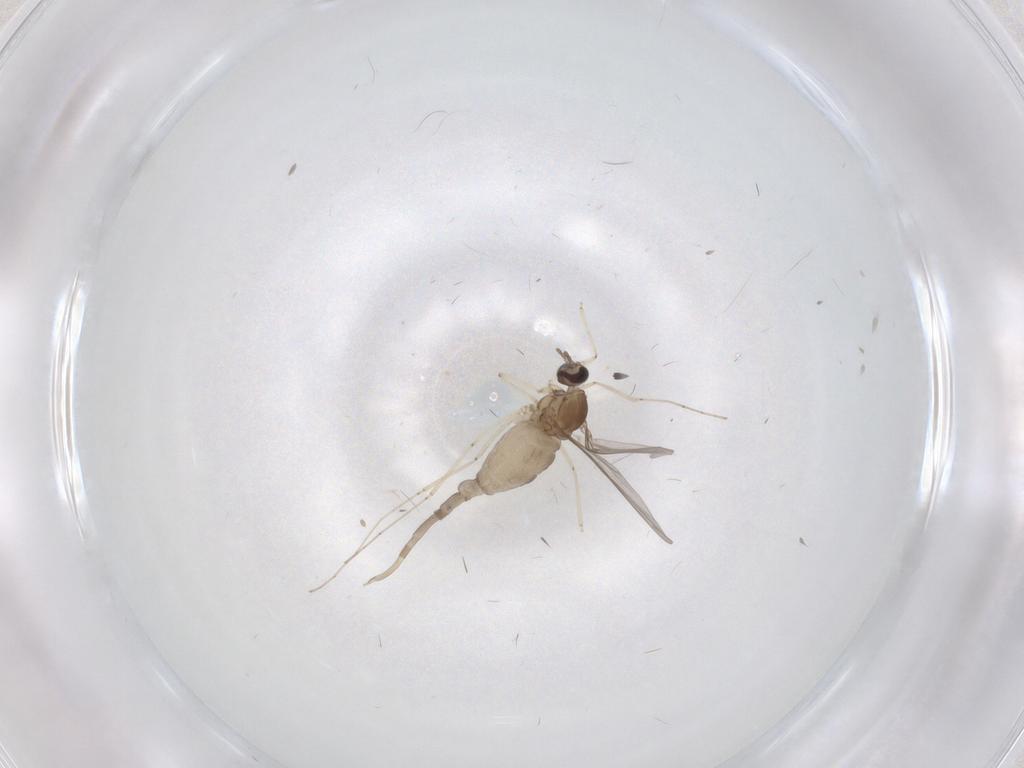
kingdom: Animalia
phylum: Arthropoda
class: Insecta
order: Diptera
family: Cecidomyiidae
